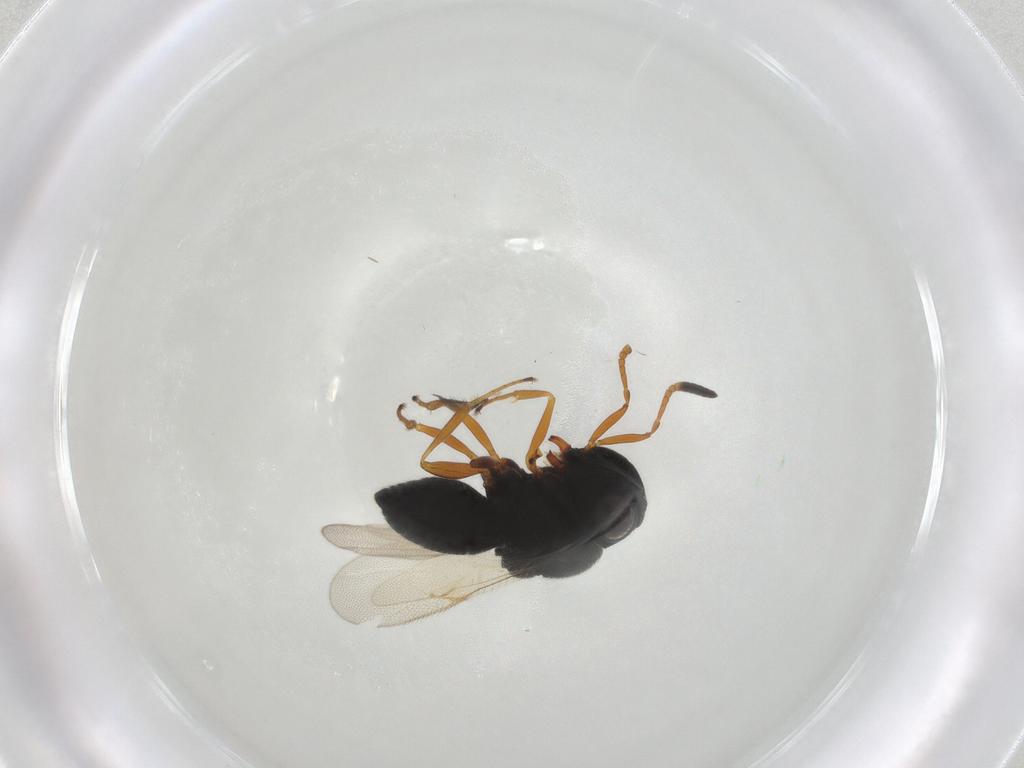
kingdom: Animalia
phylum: Arthropoda
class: Insecta
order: Hymenoptera
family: Scelionidae
